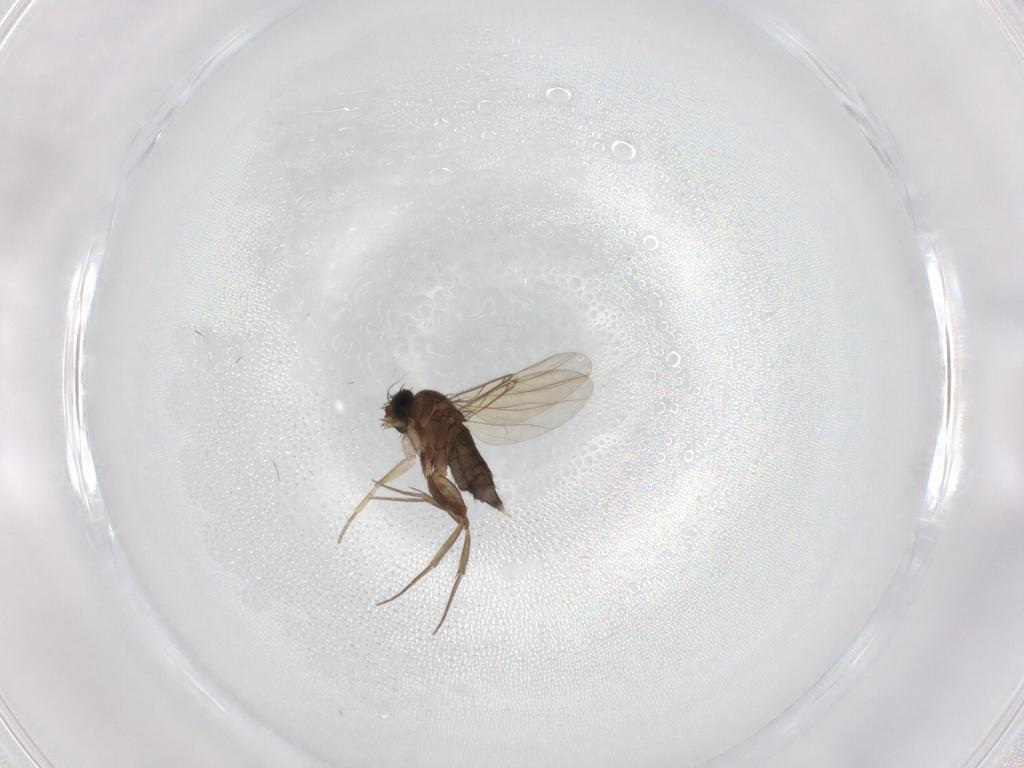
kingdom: Animalia
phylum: Arthropoda
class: Insecta
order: Diptera
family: Phoridae
